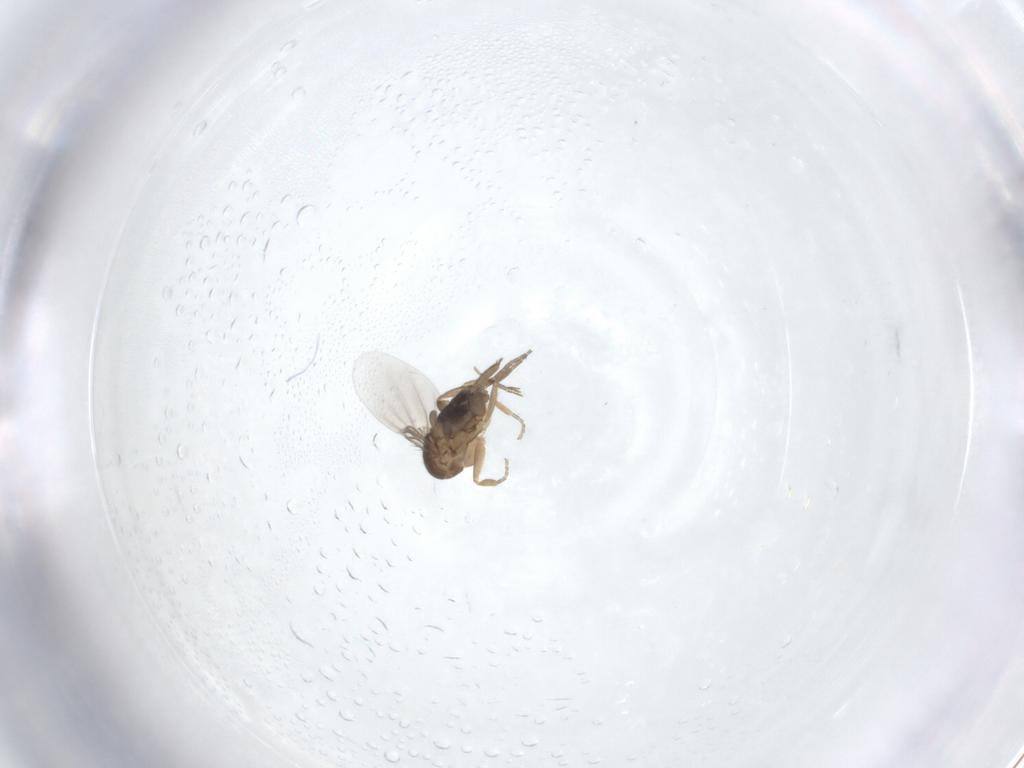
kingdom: Animalia
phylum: Arthropoda
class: Insecta
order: Diptera
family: Phoridae
